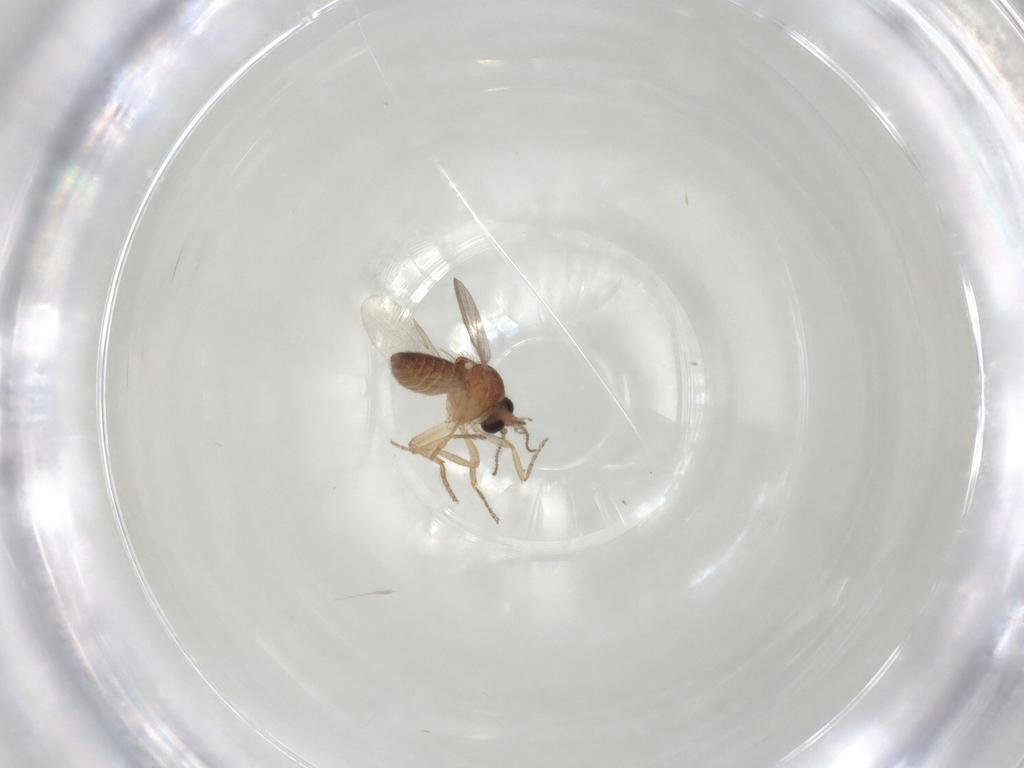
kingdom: Animalia
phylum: Arthropoda
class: Insecta
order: Diptera
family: Ceratopogonidae
